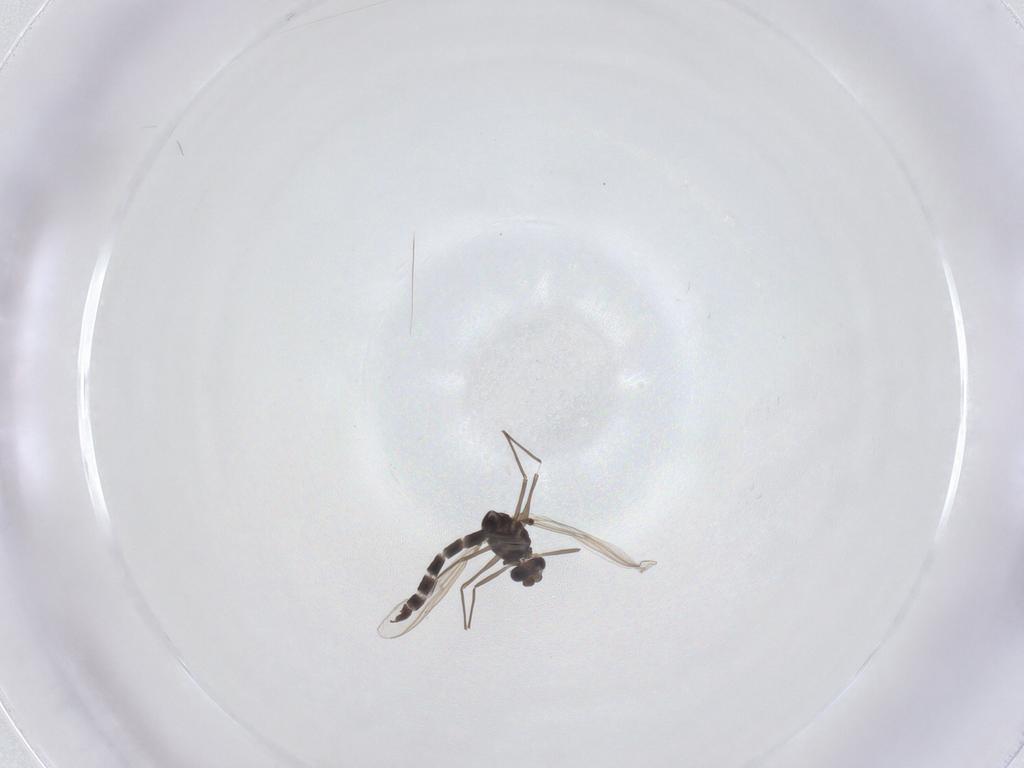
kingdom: Animalia
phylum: Arthropoda
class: Insecta
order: Diptera
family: Chironomidae
